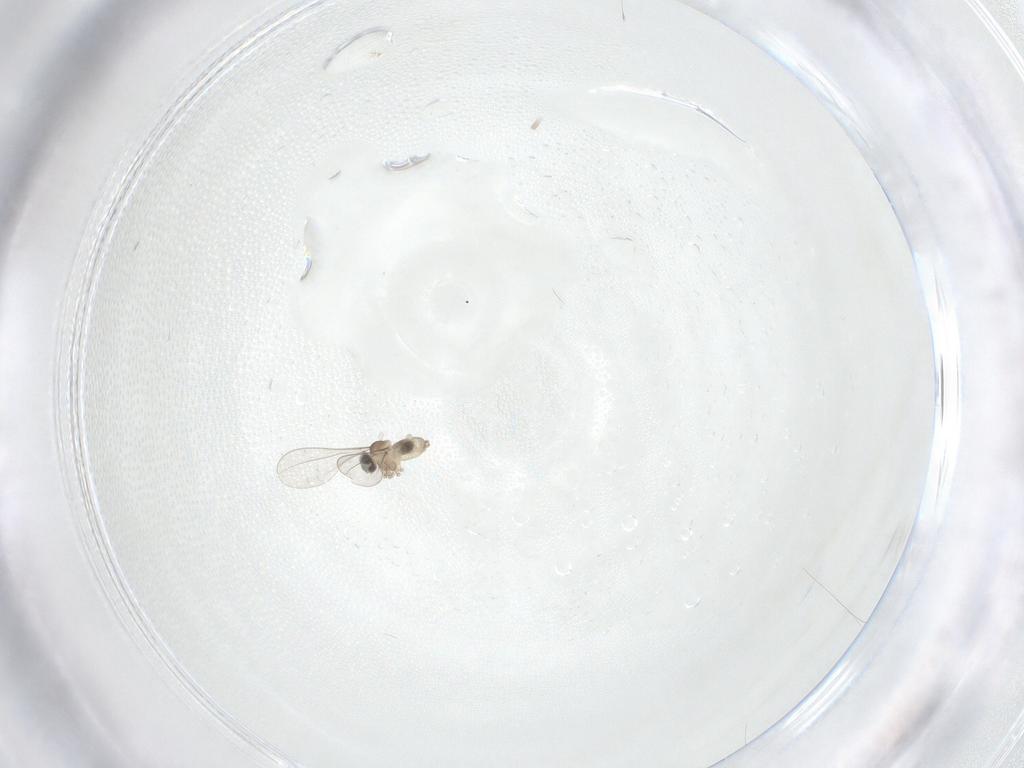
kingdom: Animalia
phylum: Arthropoda
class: Insecta
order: Diptera
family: Cecidomyiidae
